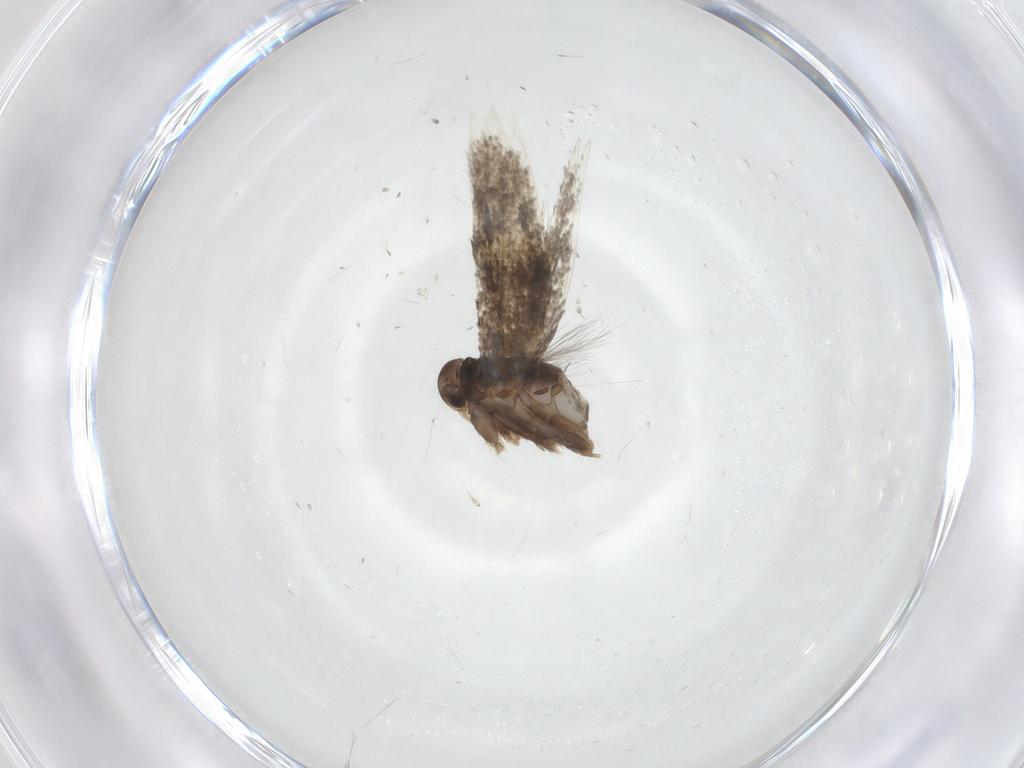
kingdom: Animalia
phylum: Arthropoda
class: Insecta
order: Lepidoptera
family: Elachistidae
